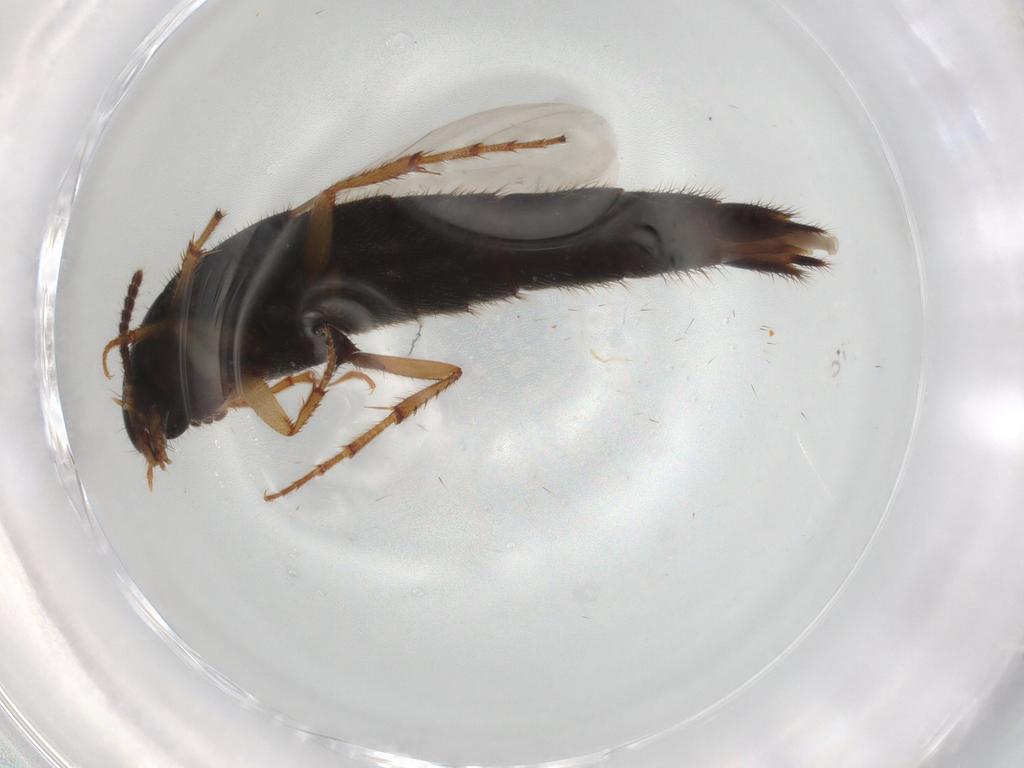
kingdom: Animalia
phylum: Arthropoda
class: Insecta
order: Coleoptera
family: Staphylinidae
